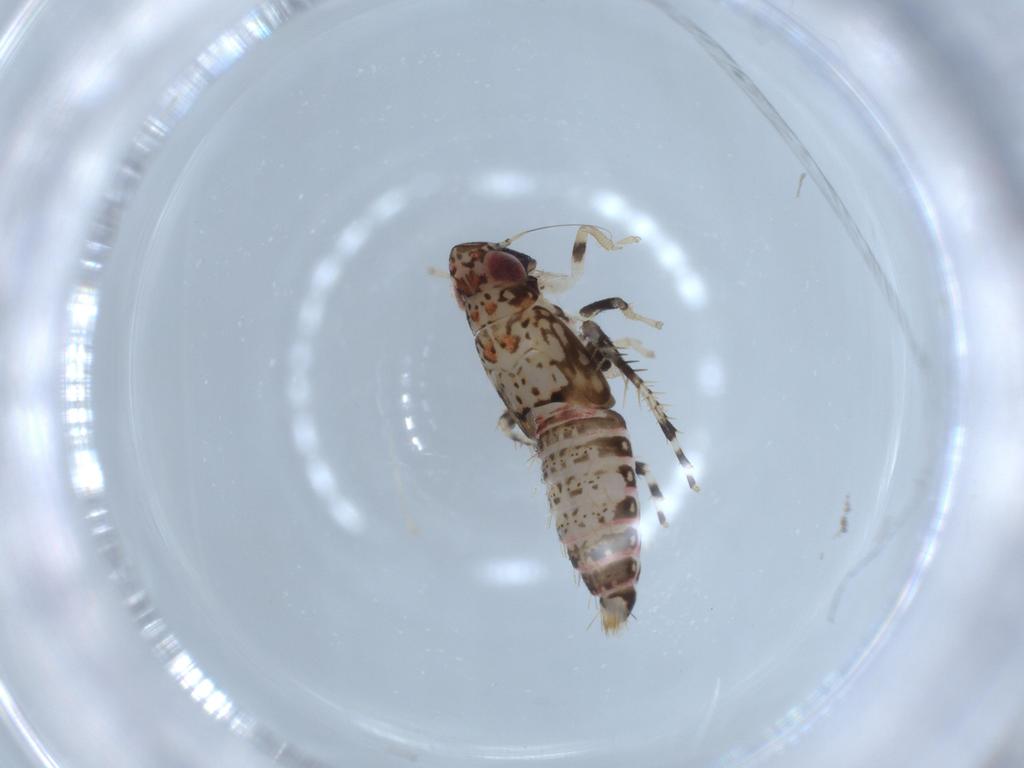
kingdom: Animalia
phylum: Arthropoda
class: Insecta
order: Hemiptera
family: Cicadellidae
